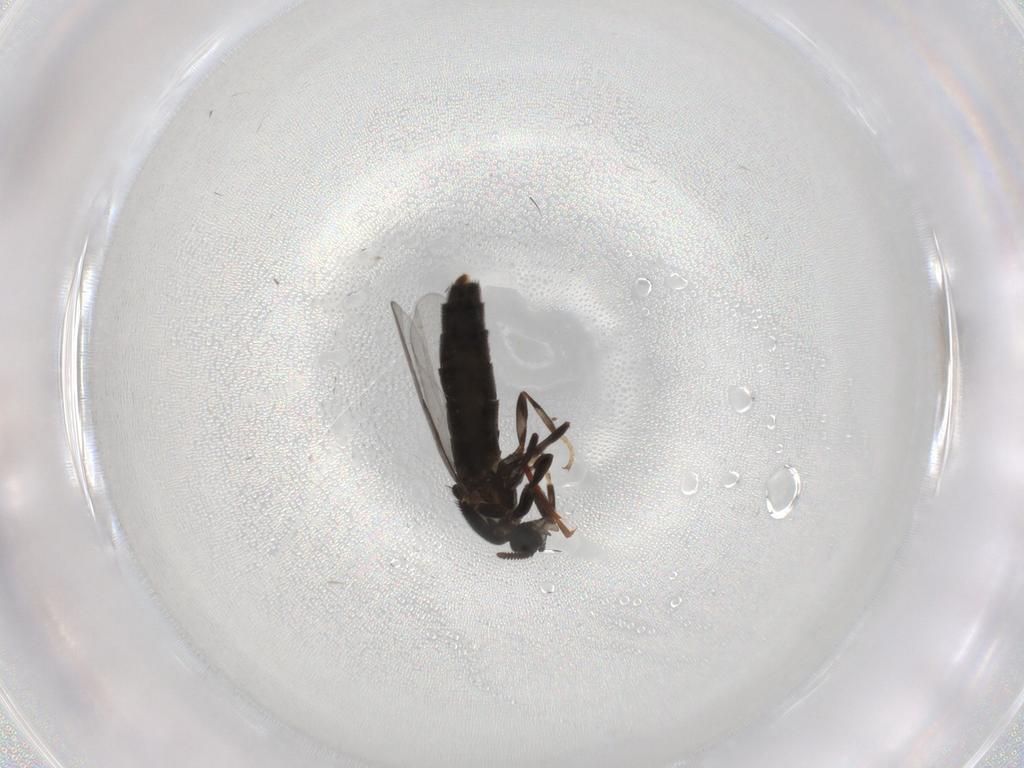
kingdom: Animalia
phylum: Arthropoda
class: Insecta
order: Diptera
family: Scatopsidae
